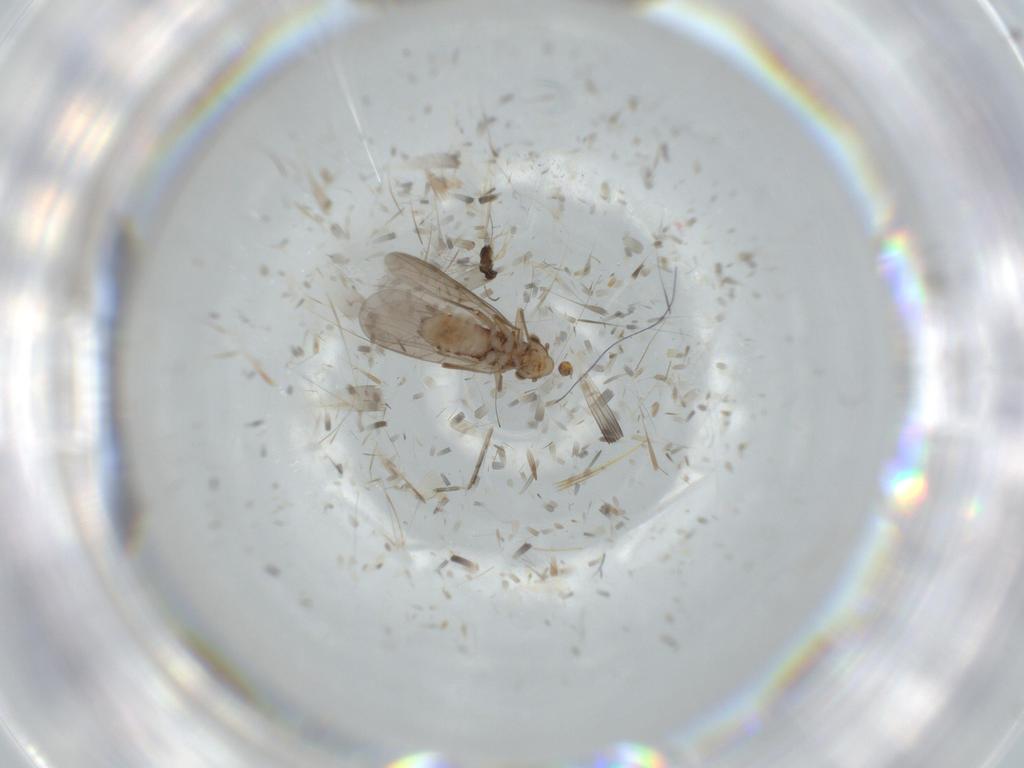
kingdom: Animalia
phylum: Arthropoda
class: Insecta
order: Psocodea
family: Lepidopsocidae
